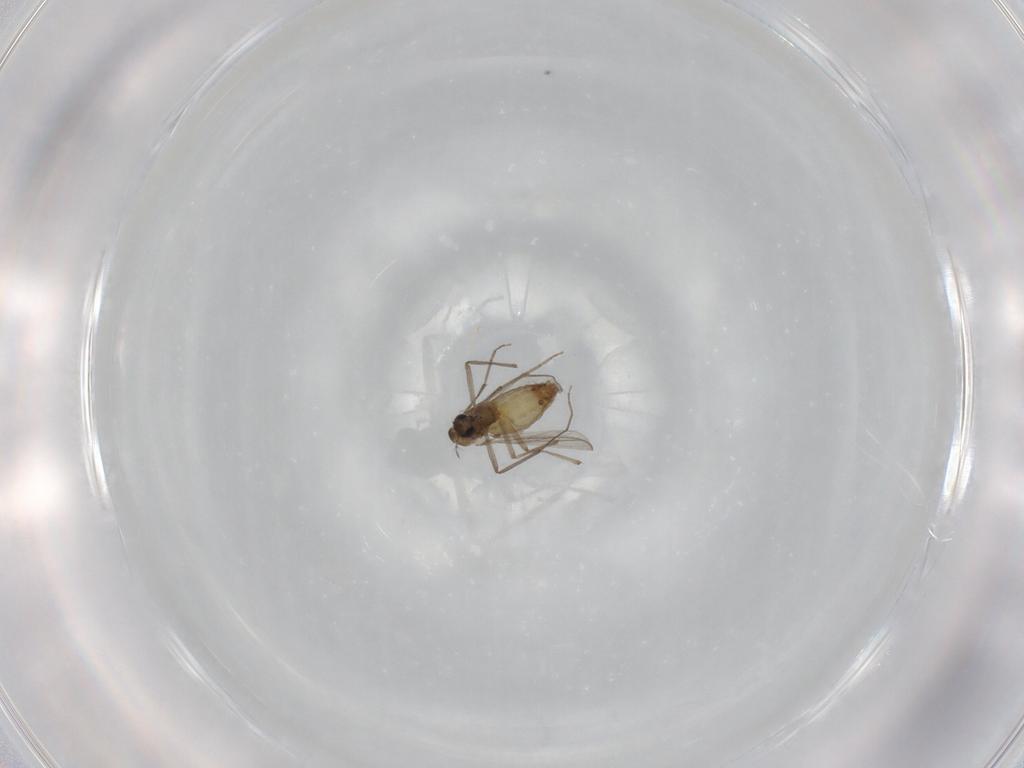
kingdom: Animalia
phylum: Arthropoda
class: Insecta
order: Diptera
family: Chironomidae
